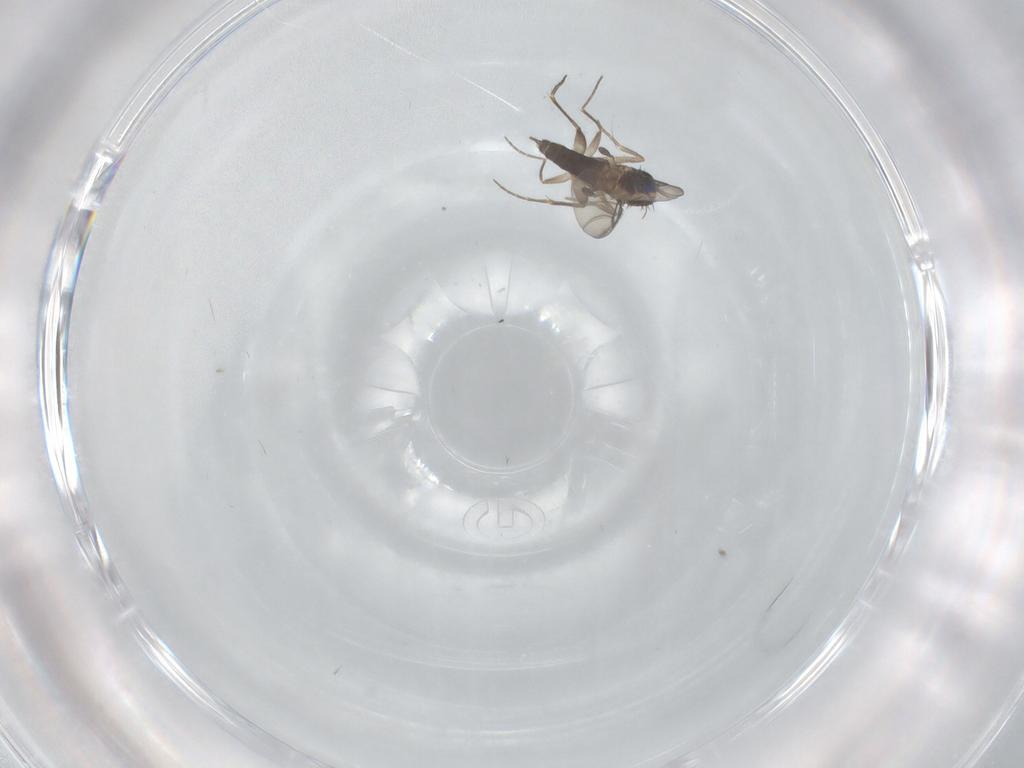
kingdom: Animalia
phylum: Arthropoda
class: Insecta
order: Diptera
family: Phoridae
